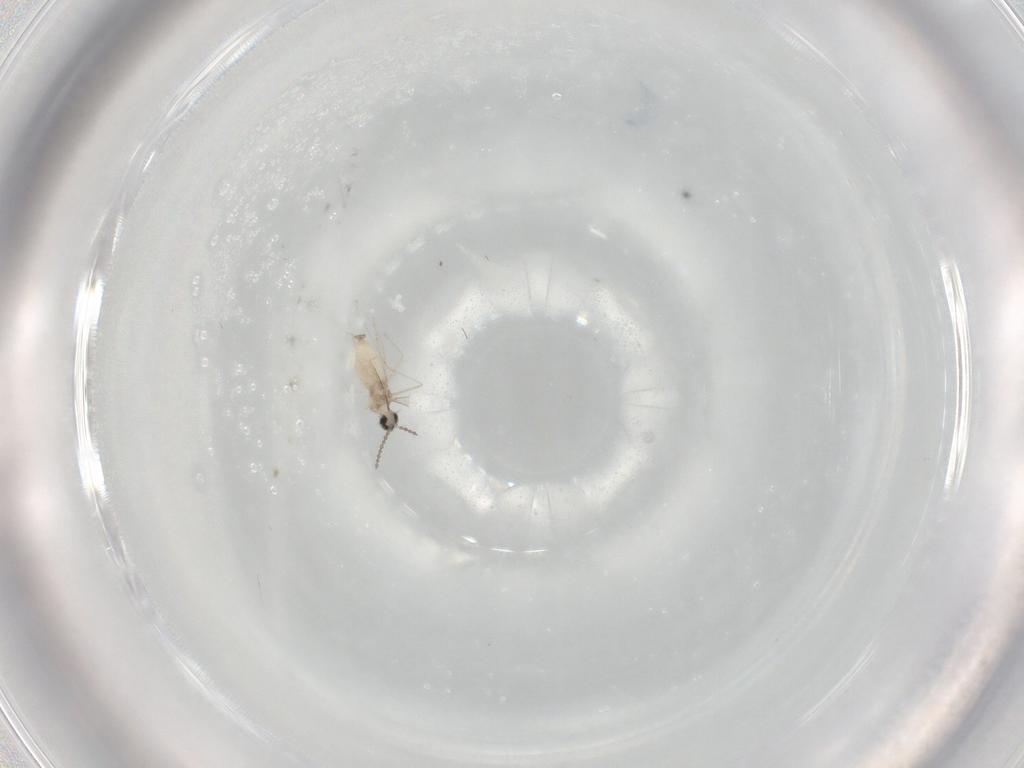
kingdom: Animalia
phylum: Arthropoda
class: Insecta
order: Diptera
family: Cecidomyiidae
